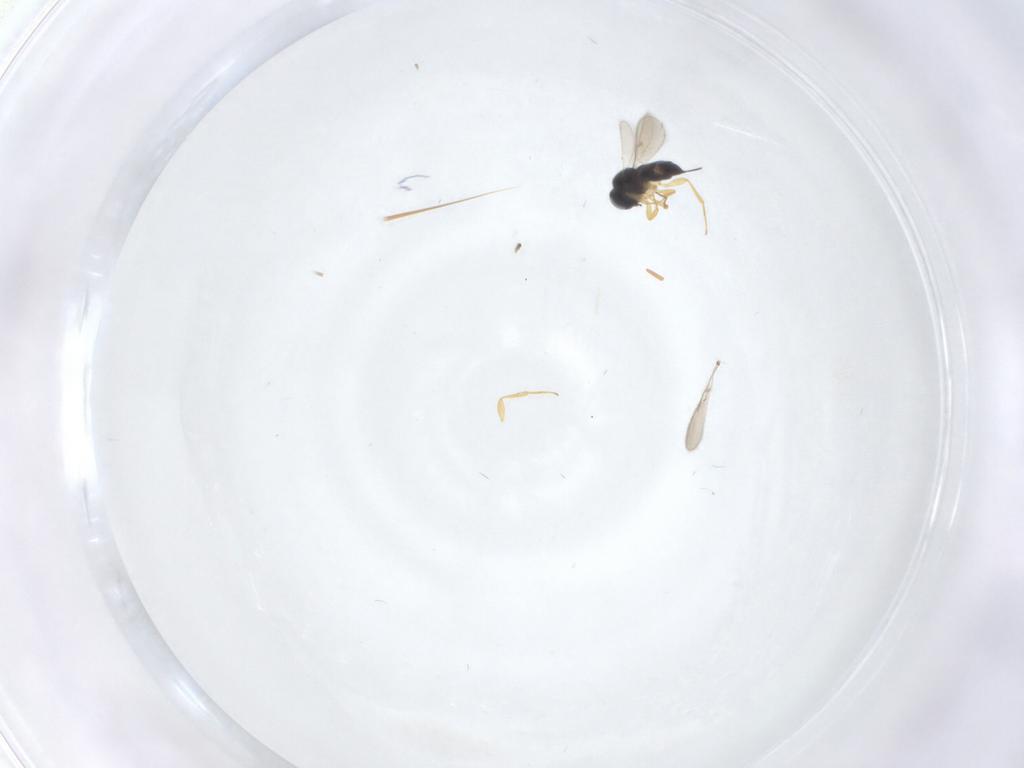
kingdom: Animalia
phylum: Arthropoda
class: Insecta
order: Hymenoptera
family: Scelionidae
